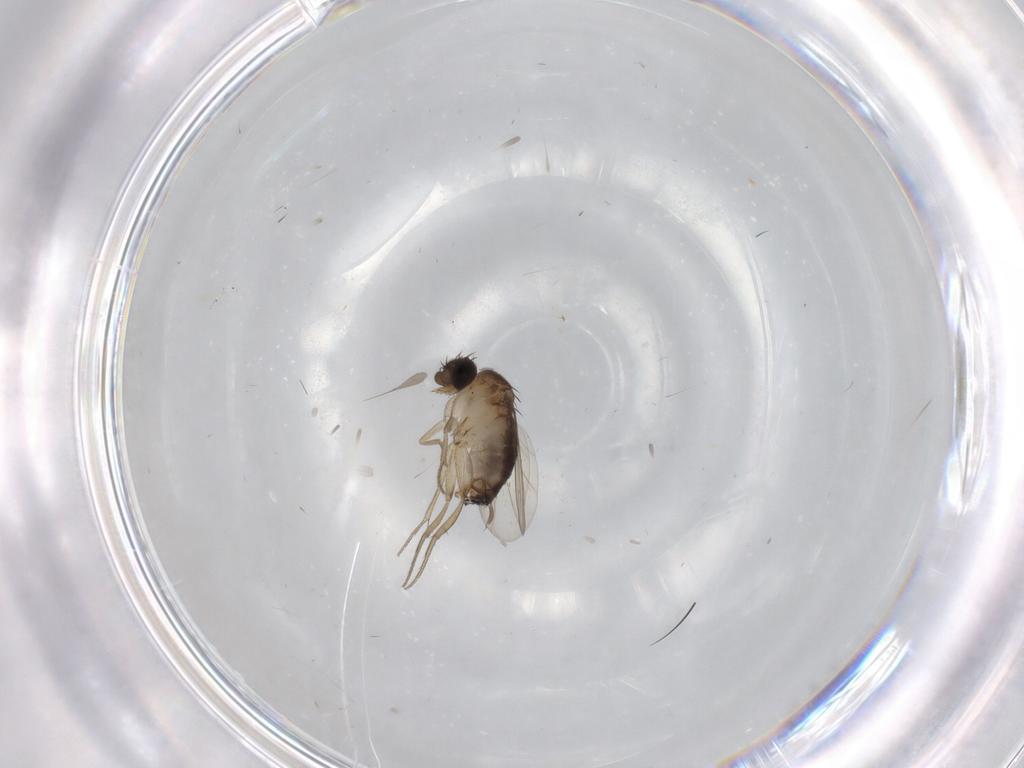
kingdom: Animalia
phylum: Arthropoda
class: Insecta
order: Diptera
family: Sciaridae
